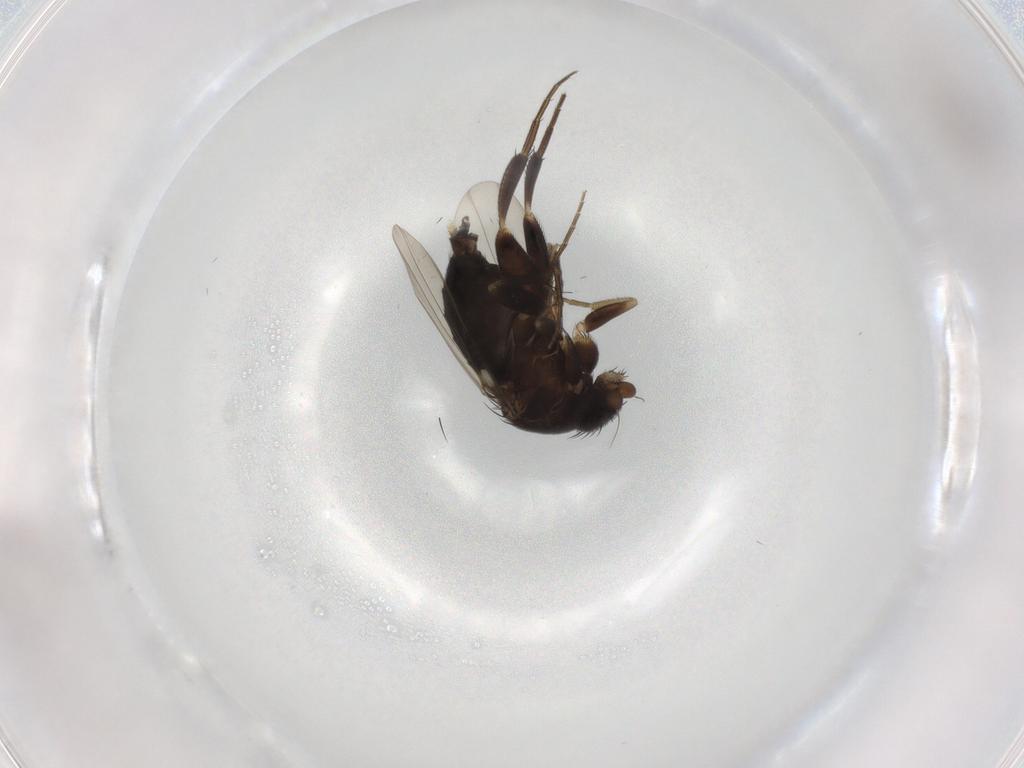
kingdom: Animalia
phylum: Arthropoda
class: Insecta
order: Diptera
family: Phoridae
